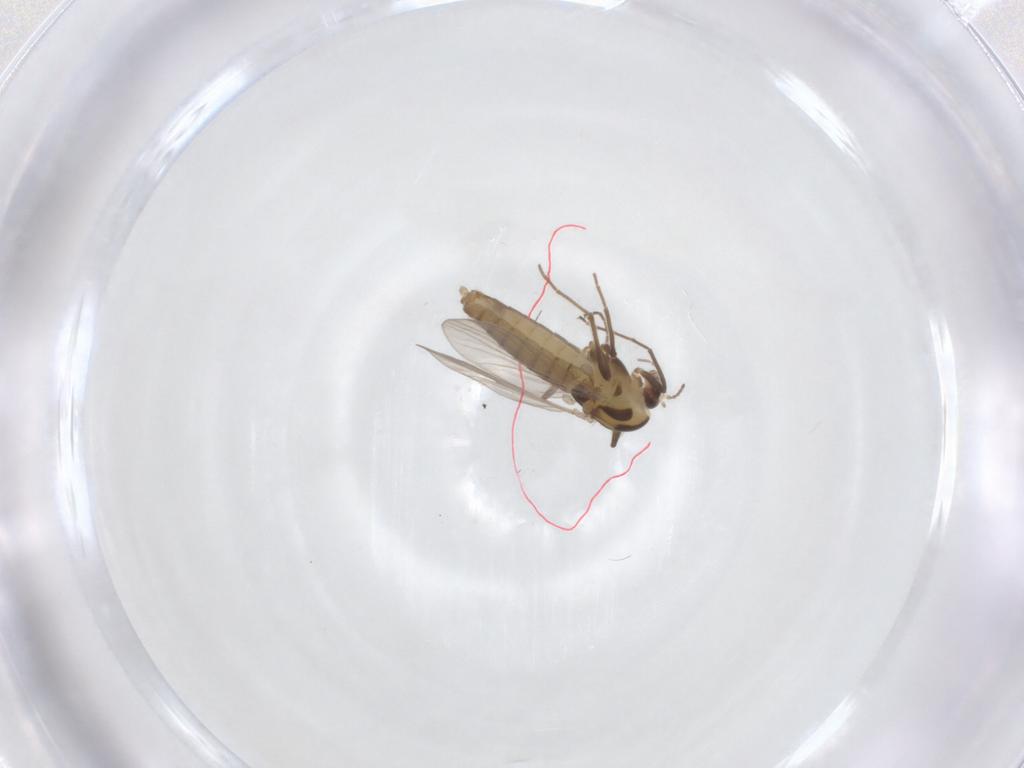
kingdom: Animalia
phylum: Arthropoda
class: Insecta
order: Diptera
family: Chironomidae
